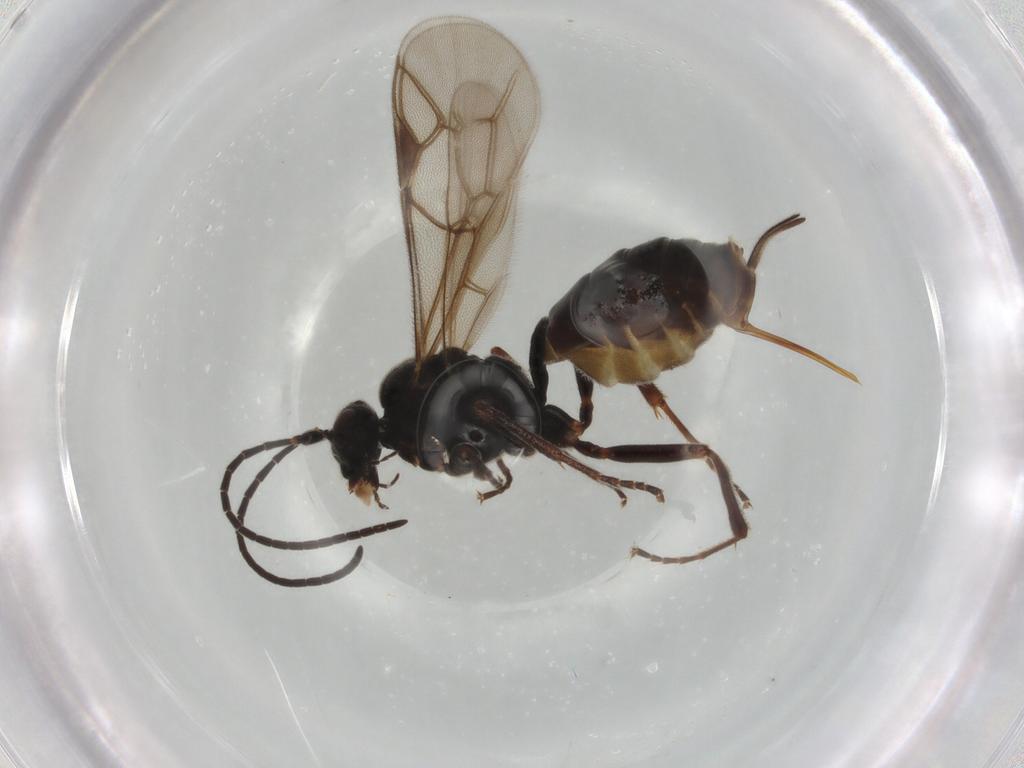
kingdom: Animalia
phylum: Arthropoda
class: Insecta
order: Hymenoptera
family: Ichneumonidae
